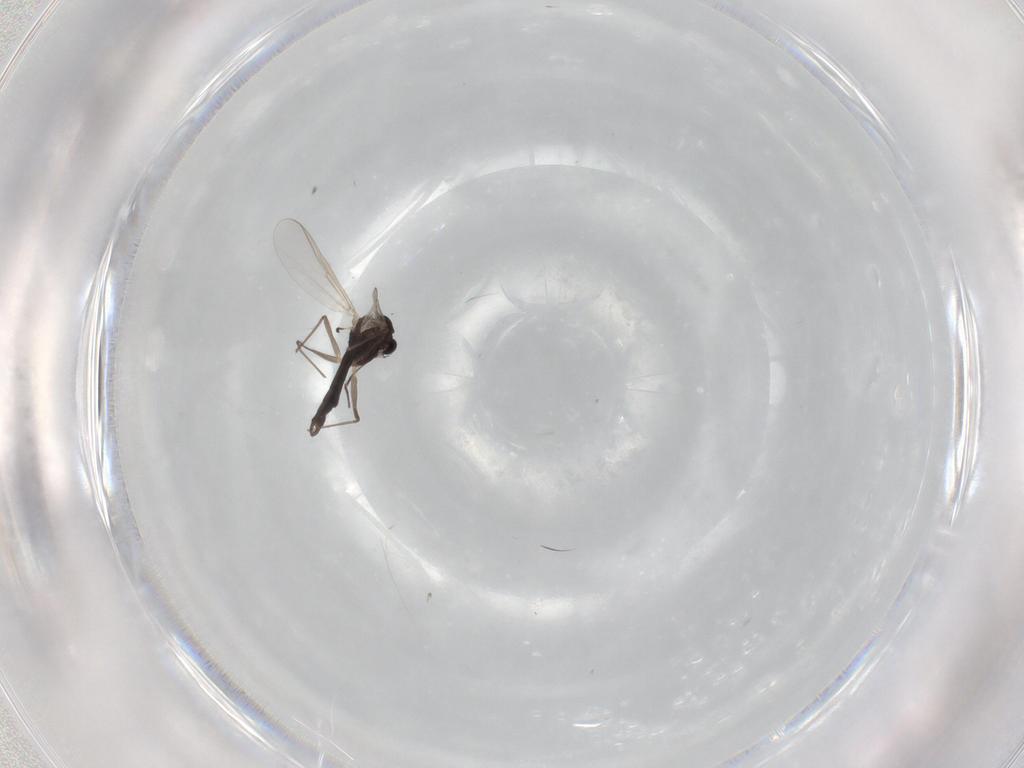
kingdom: Animalia
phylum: Arthropoda
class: Insecta
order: Diptera
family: Chironomidae
